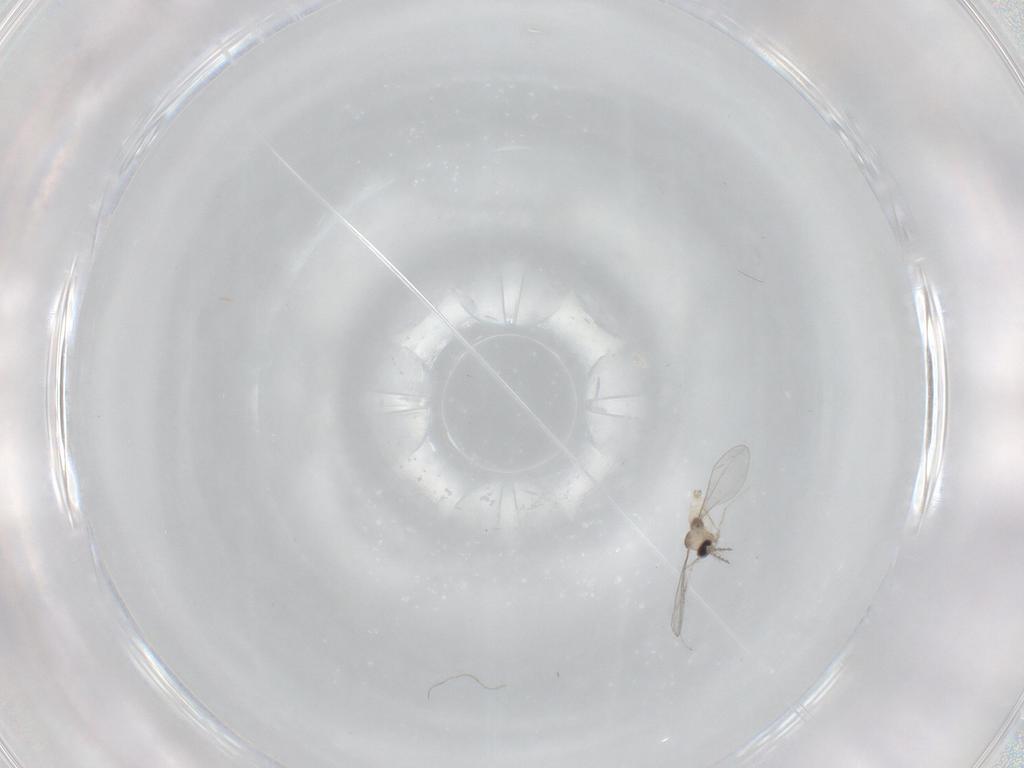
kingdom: Animalia
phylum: Arthropoda
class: Insecta
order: Diptera
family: Cecidomyiidae
